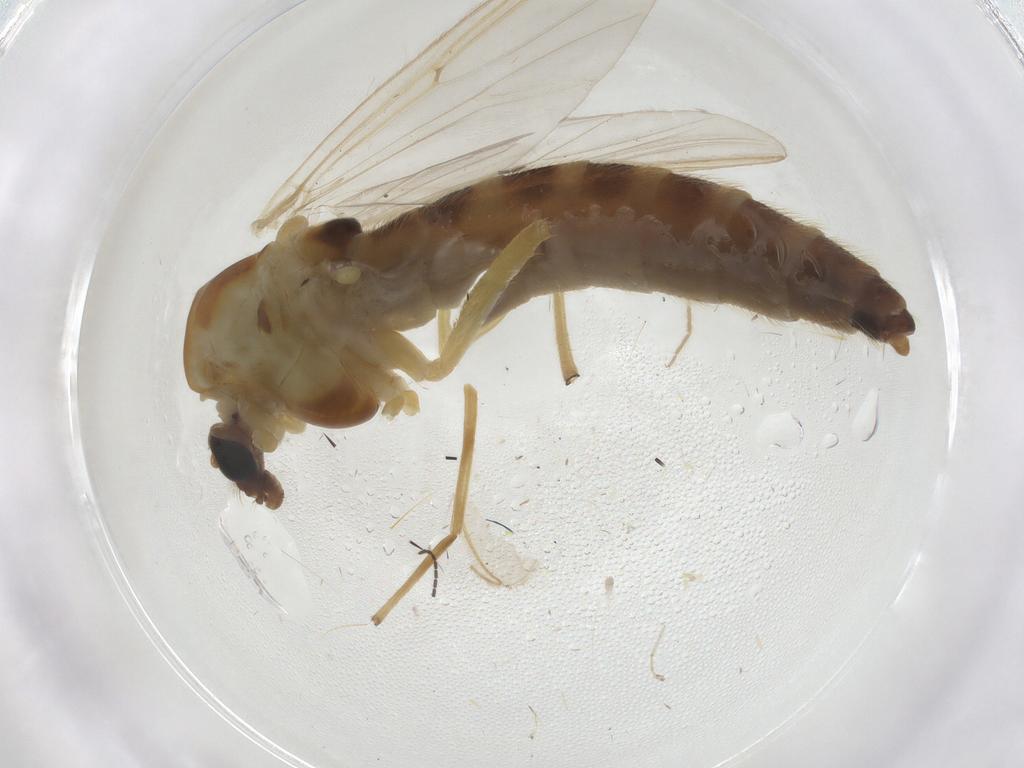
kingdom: Animalia
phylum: Arthropoda
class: Insecta
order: Diptera
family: Chironomidae
